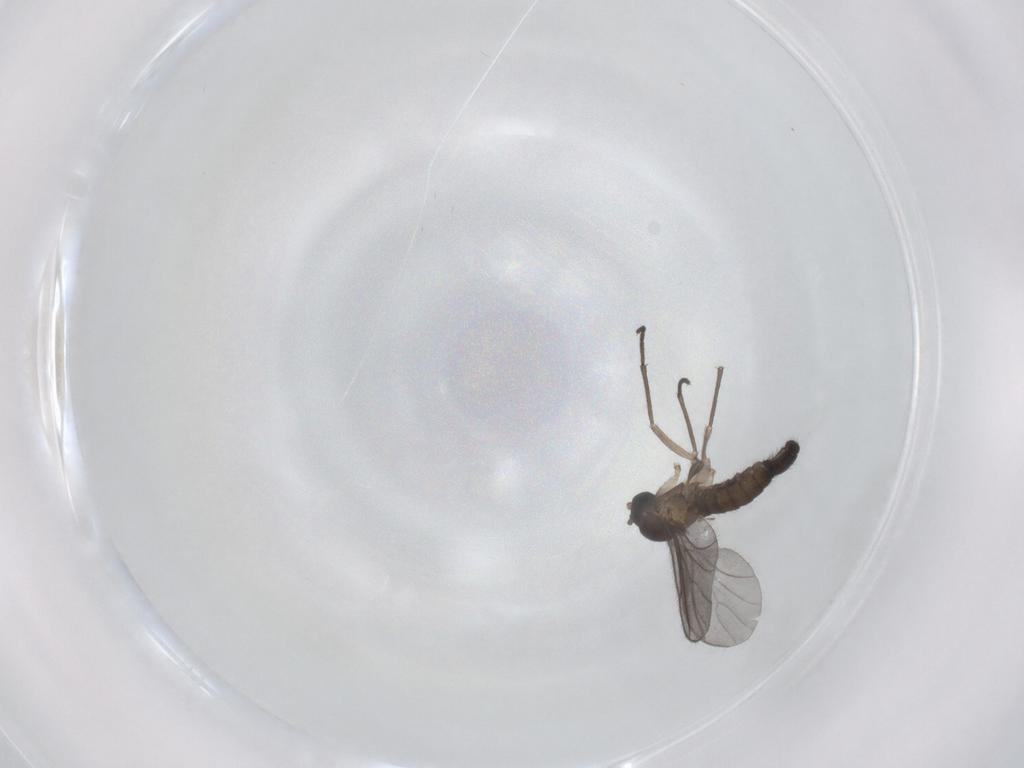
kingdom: Animalia
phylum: Arthropoda
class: Insecta
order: Diptera
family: Sciaridae
